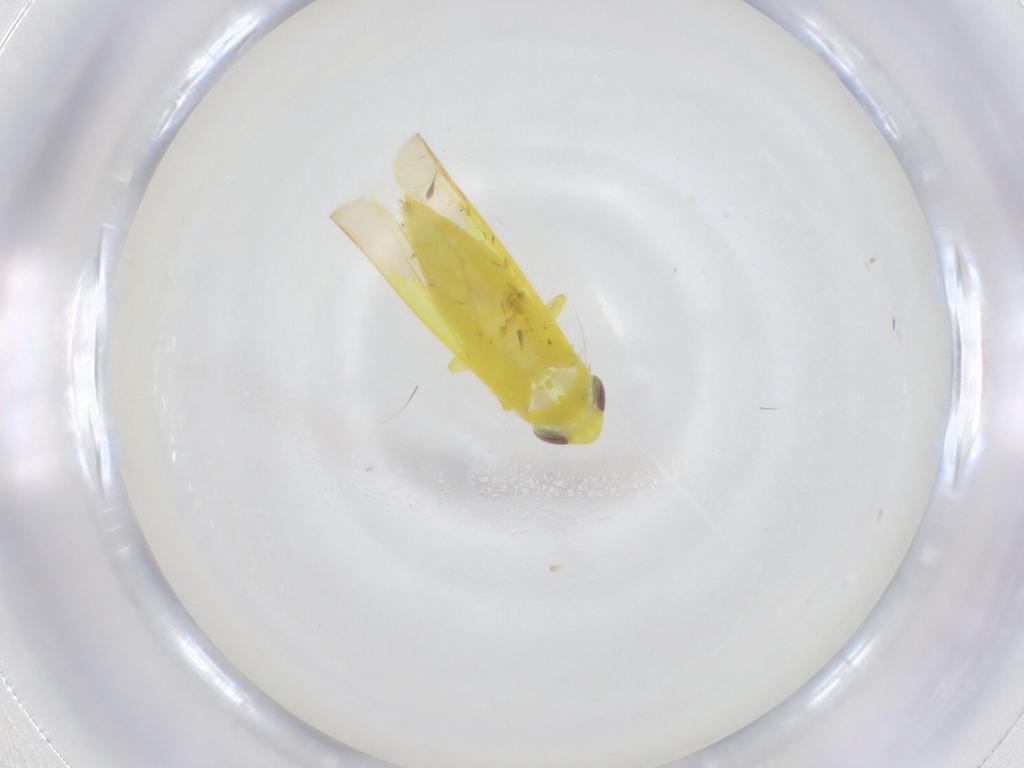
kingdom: Animalia
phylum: Arthropoda
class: Insecta
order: Hemiptera
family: Cicadellidae
